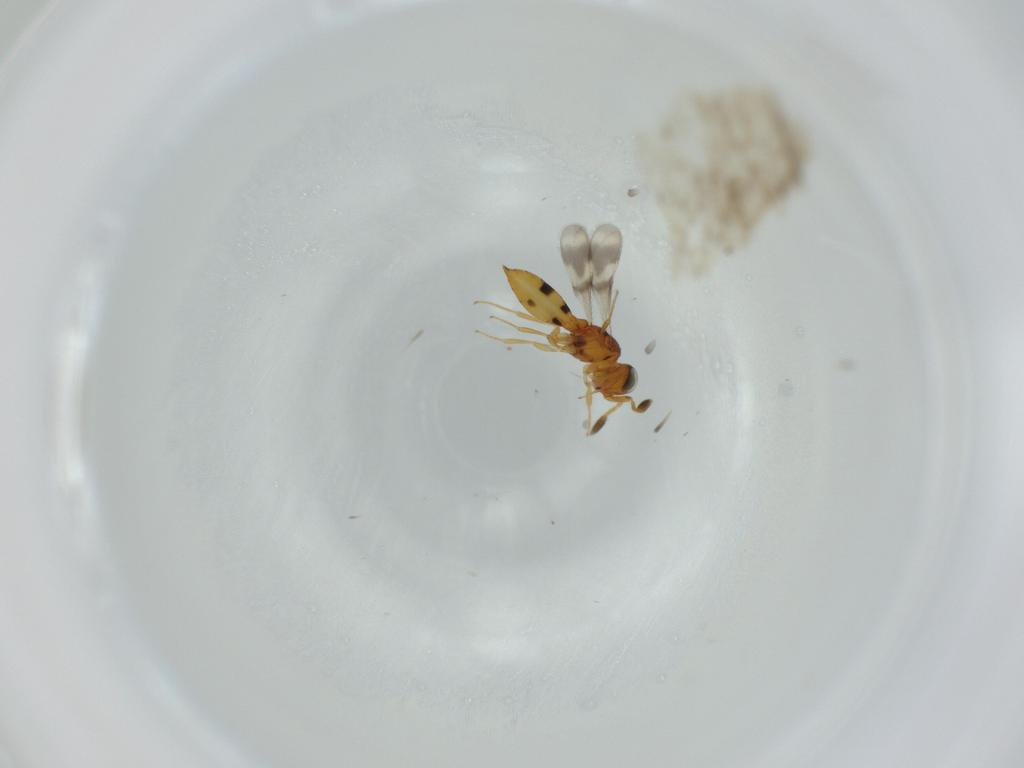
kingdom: Animalia
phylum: Arthropoda
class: Insecta
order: Hymenoptera
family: Scelionidae
